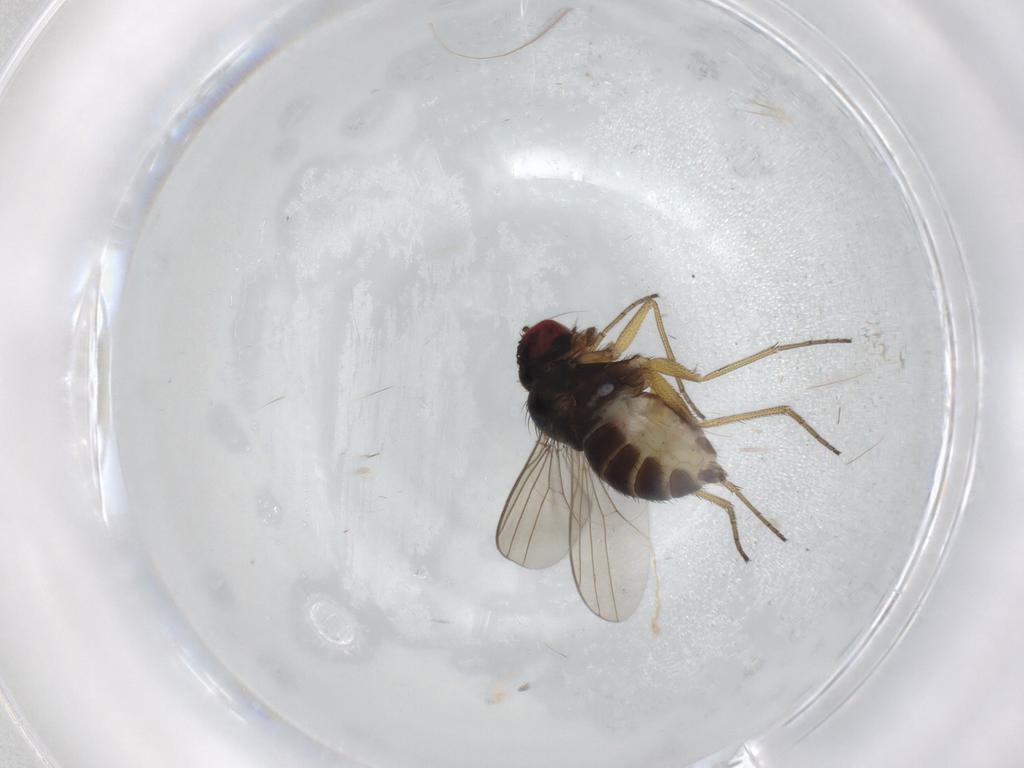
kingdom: Animalia
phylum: Arthropoda
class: Insecta
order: Diptera
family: Dolichopodidae
